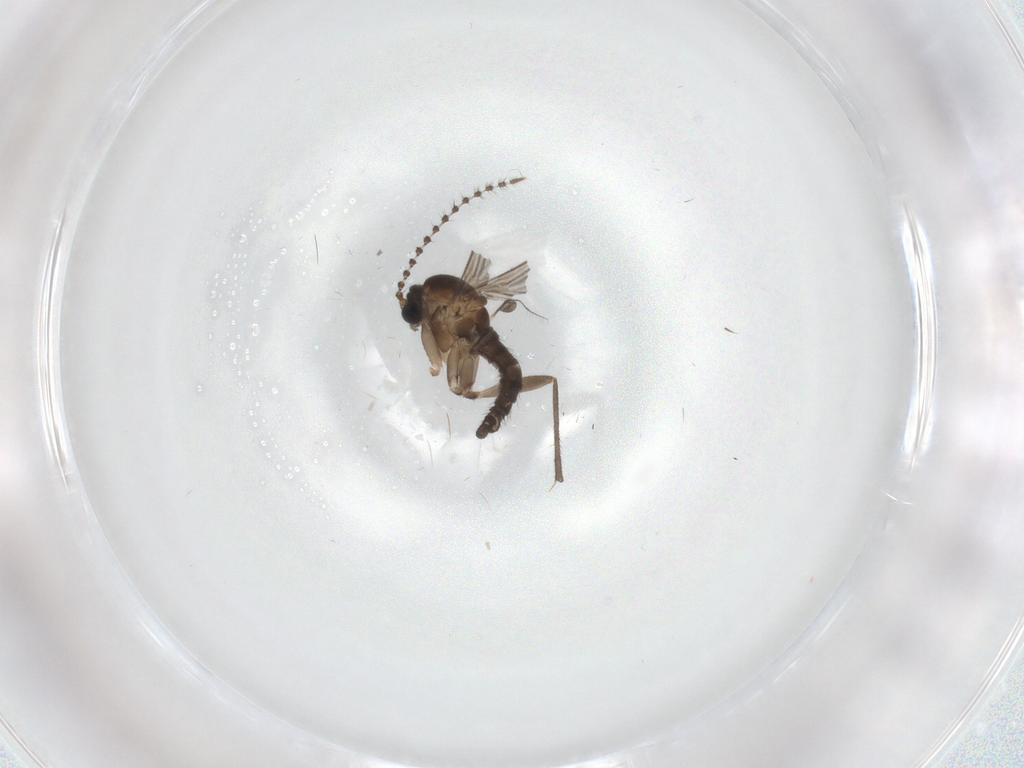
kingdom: Animalia
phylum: Arthropoda
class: Insecta
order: Diptera
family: Sciaridae
